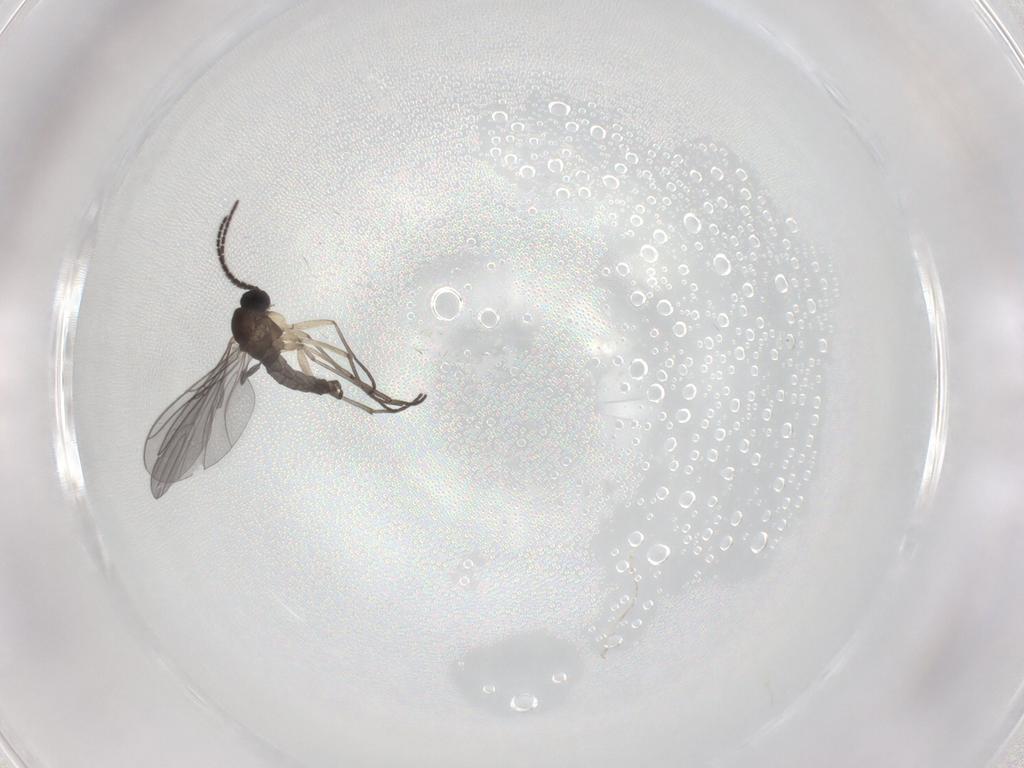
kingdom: Animalia
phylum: Arthropoda
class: Insecta
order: Diptera
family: Sciaridae
